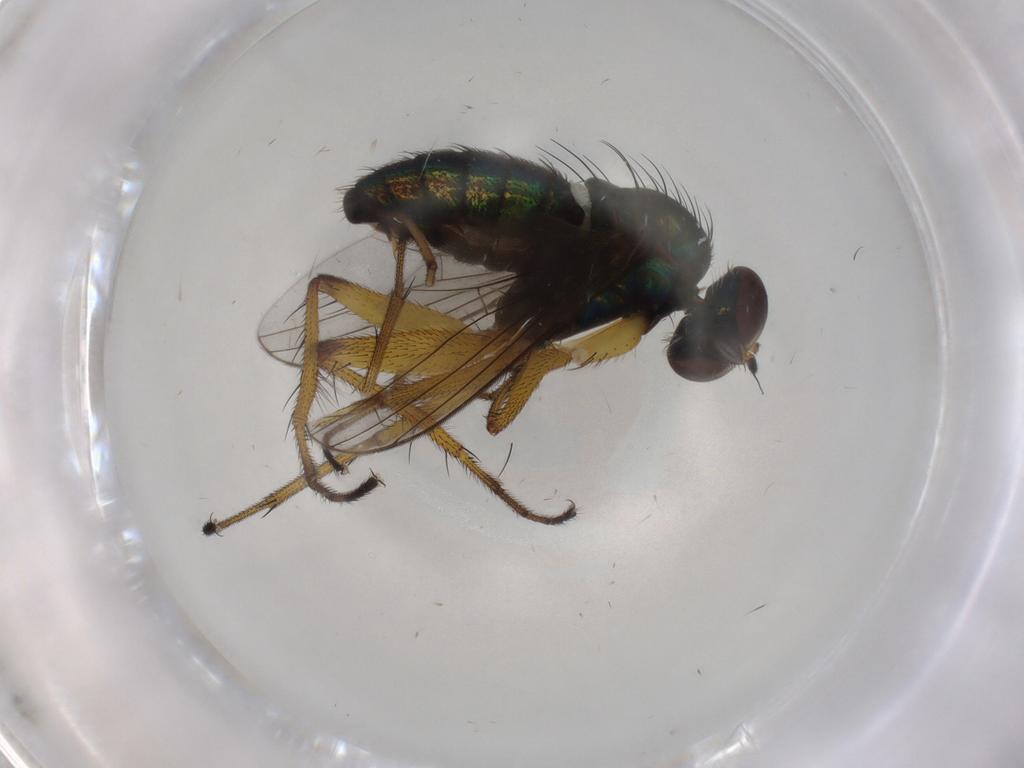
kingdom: Animalia
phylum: Arthropoda
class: Insecta
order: Diptera
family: Dolichopodidae
